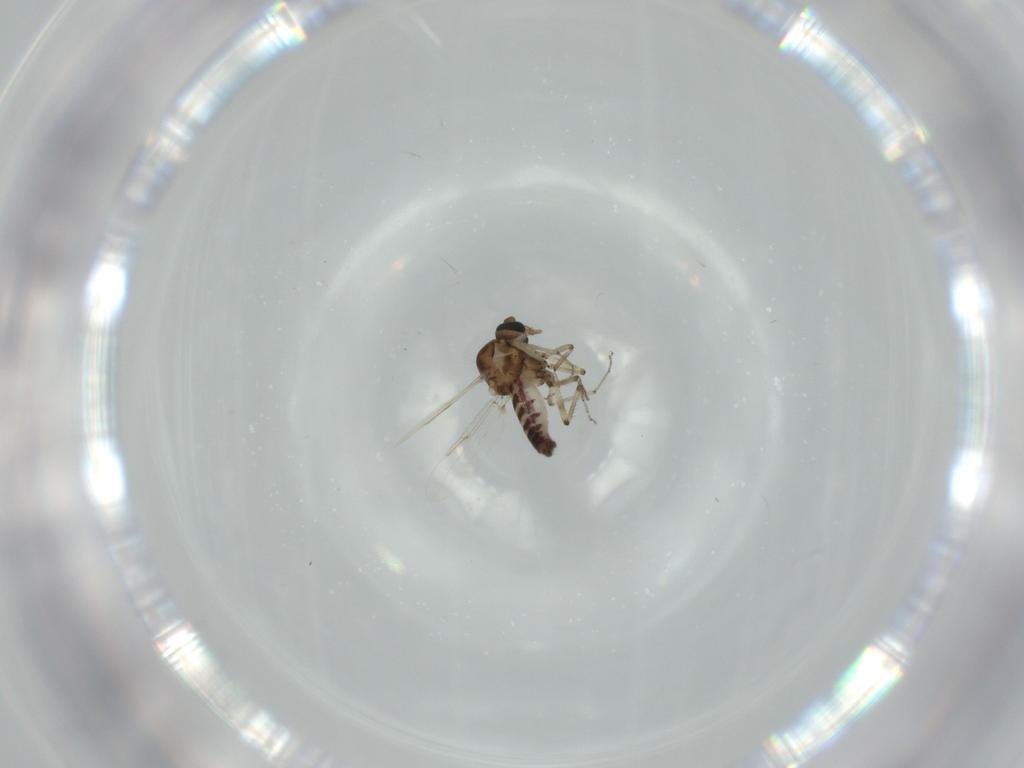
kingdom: Animalia
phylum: Arthropoda
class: Insecta
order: Diptera
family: Ceratopogonidae
